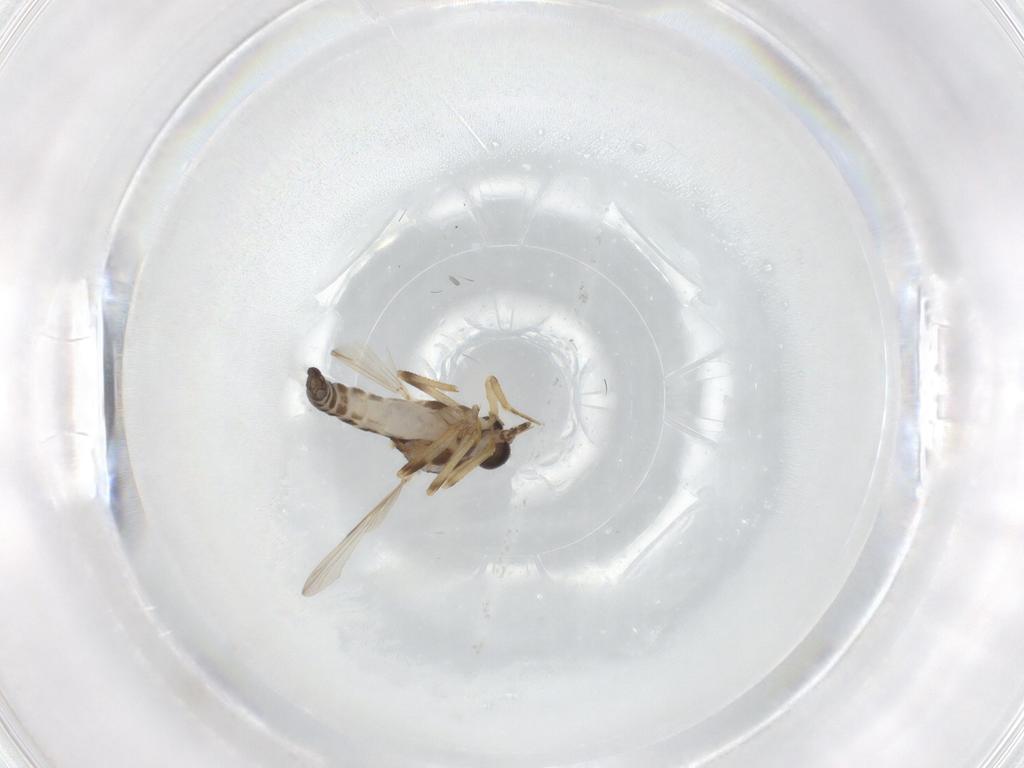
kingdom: Animalia
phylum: Arthropoda
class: Insecta
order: Diptera
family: Ceratopogonidae
